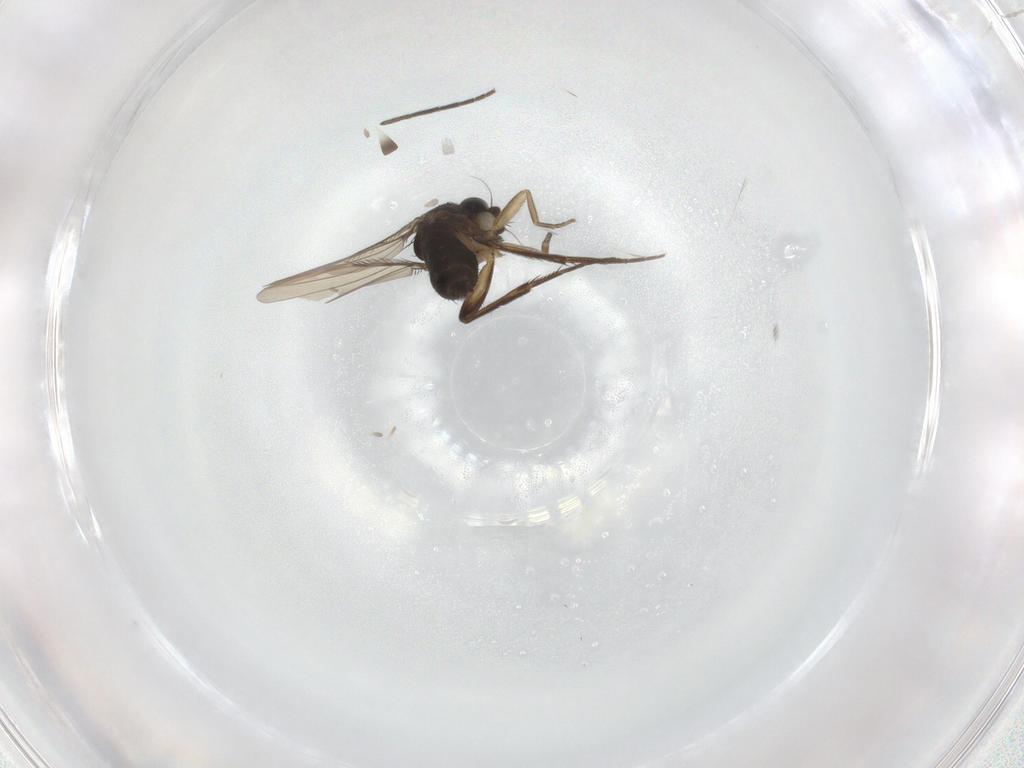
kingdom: Animalia
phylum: Arthropoda
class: Insecta
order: Diptera
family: Phoridae
